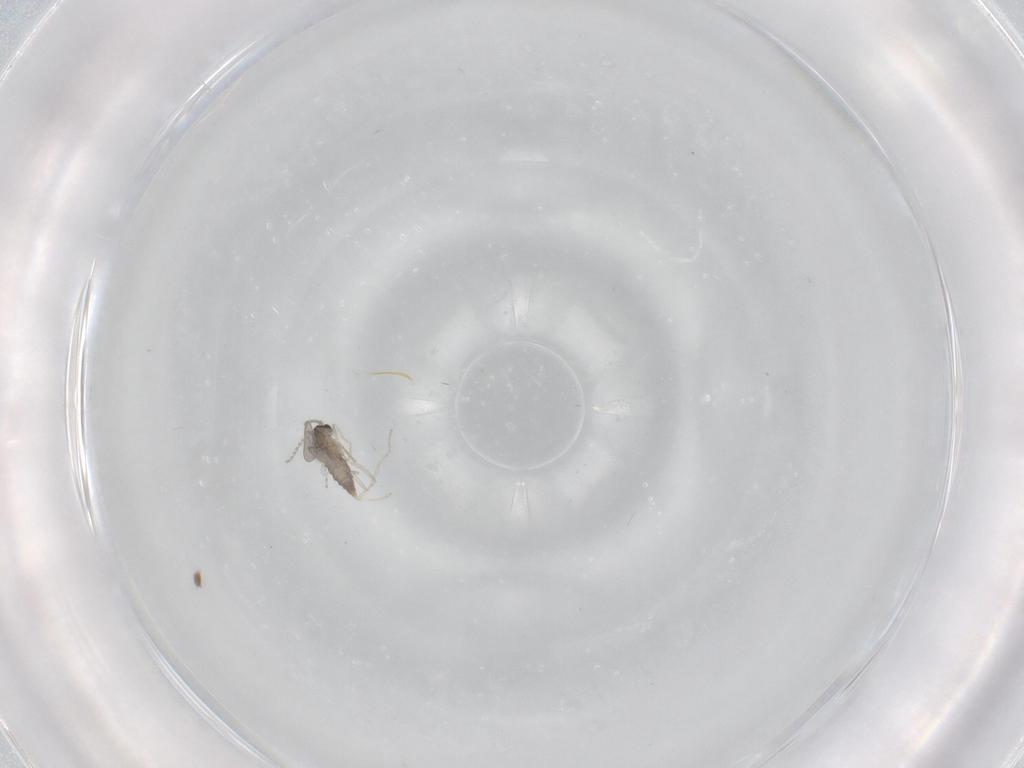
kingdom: Animalia
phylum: Arthropoda
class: Insecta
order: Diptera
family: Cecidomyiidae
